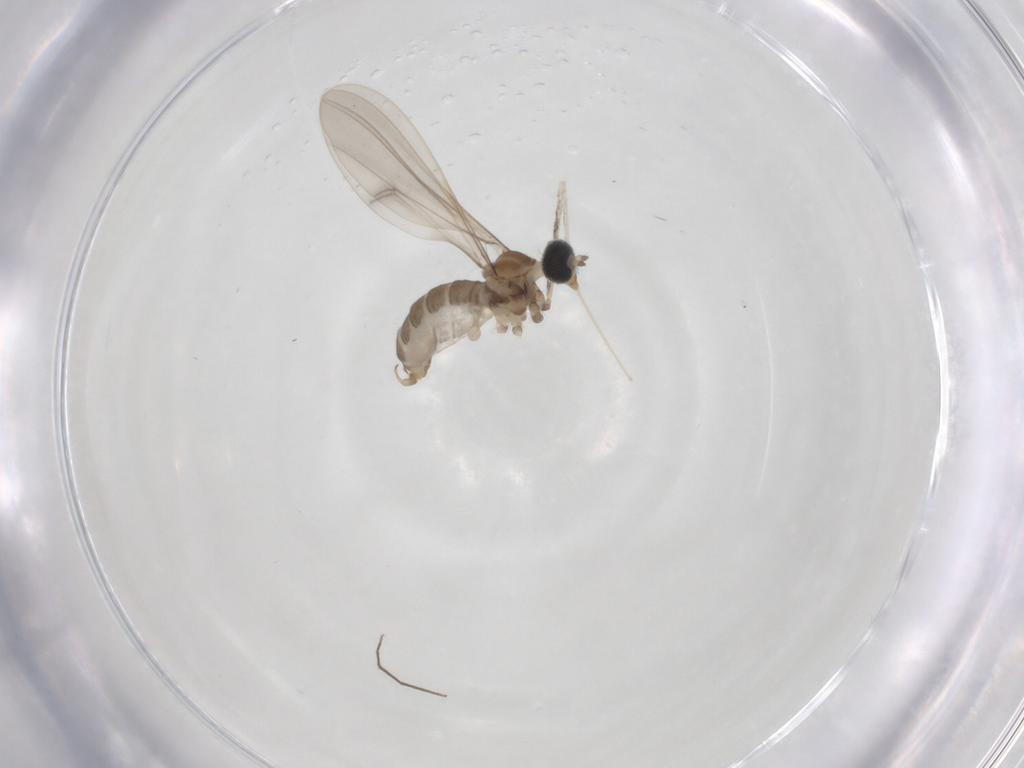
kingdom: Animalia
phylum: Arthropoda
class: Insecta
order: Diptera
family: Cecidomyiidae
